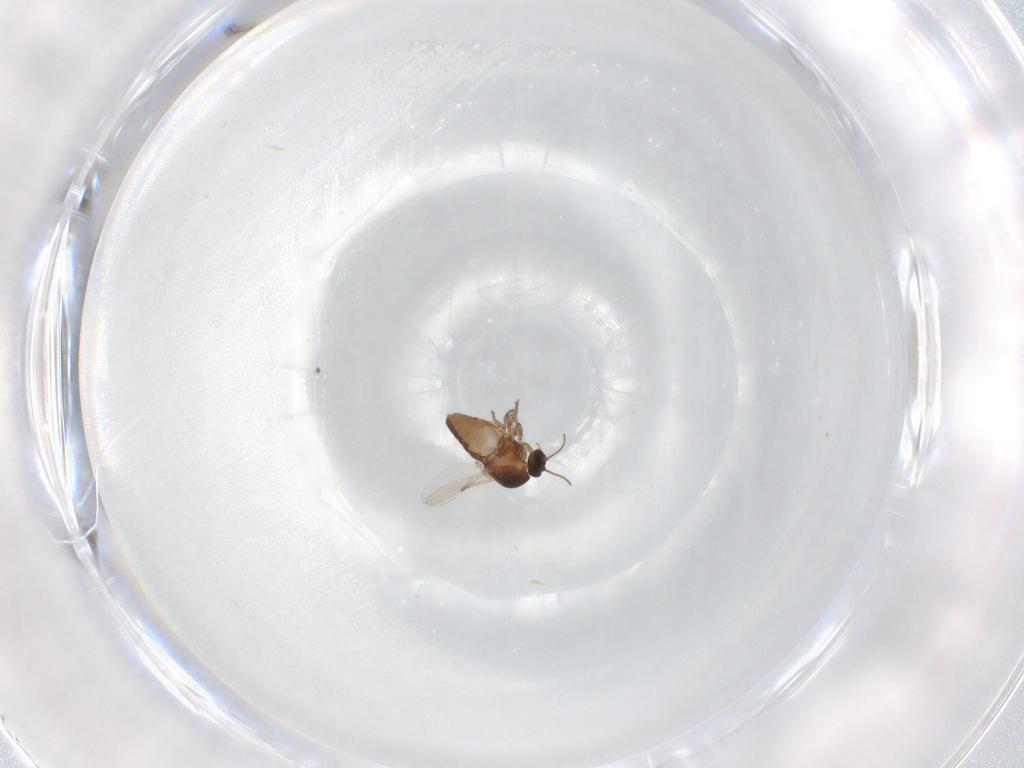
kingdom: Animalia
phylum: Arthropoda
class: Insecta
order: Diptera
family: Ceratopogonidae
